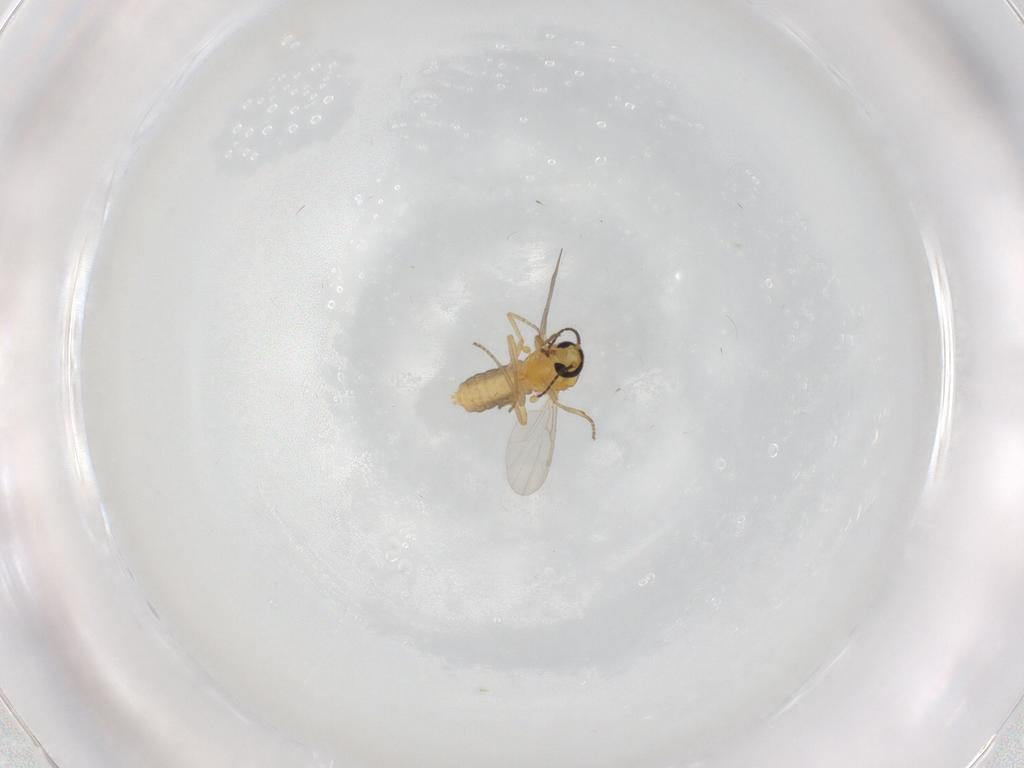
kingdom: Animalia
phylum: Arthropoda
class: Insecta
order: Diptera
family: Ceratopogonidae
